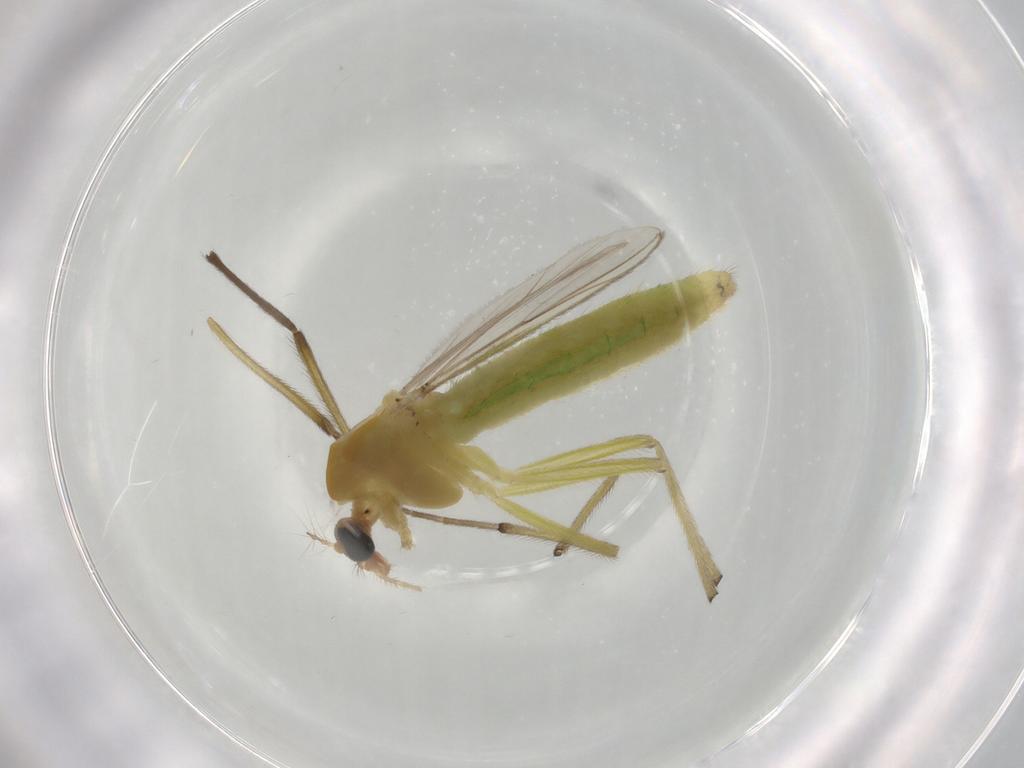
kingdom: Animalia
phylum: Arthropoda
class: Insecta
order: Diptera
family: Chironomidae
